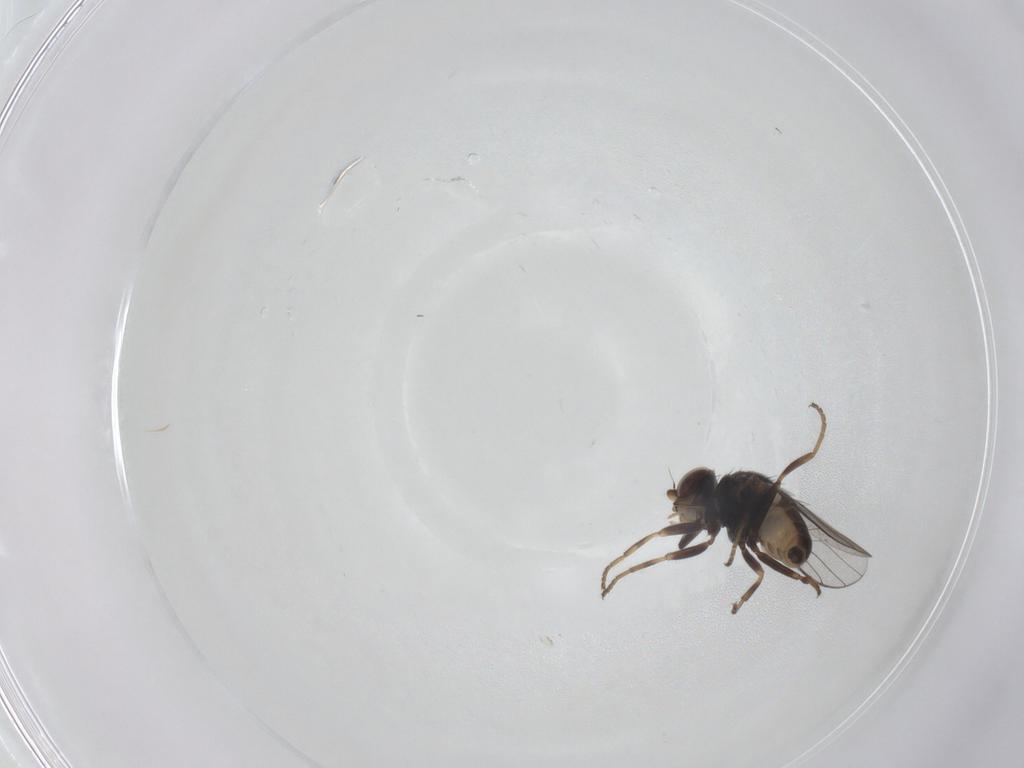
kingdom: Animalia
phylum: Arthropoda
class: Insecta
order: Diptera
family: Chloropidae
